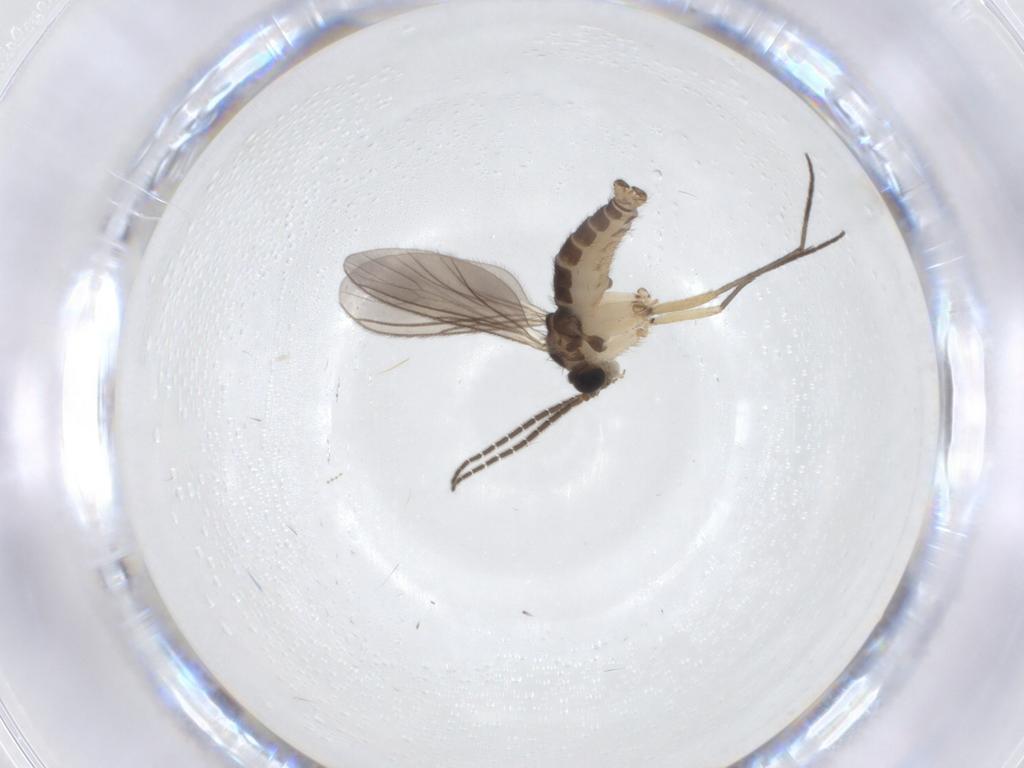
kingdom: Animalia
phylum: Arthropoda
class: Insecta
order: Diptera
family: Sciaridae
